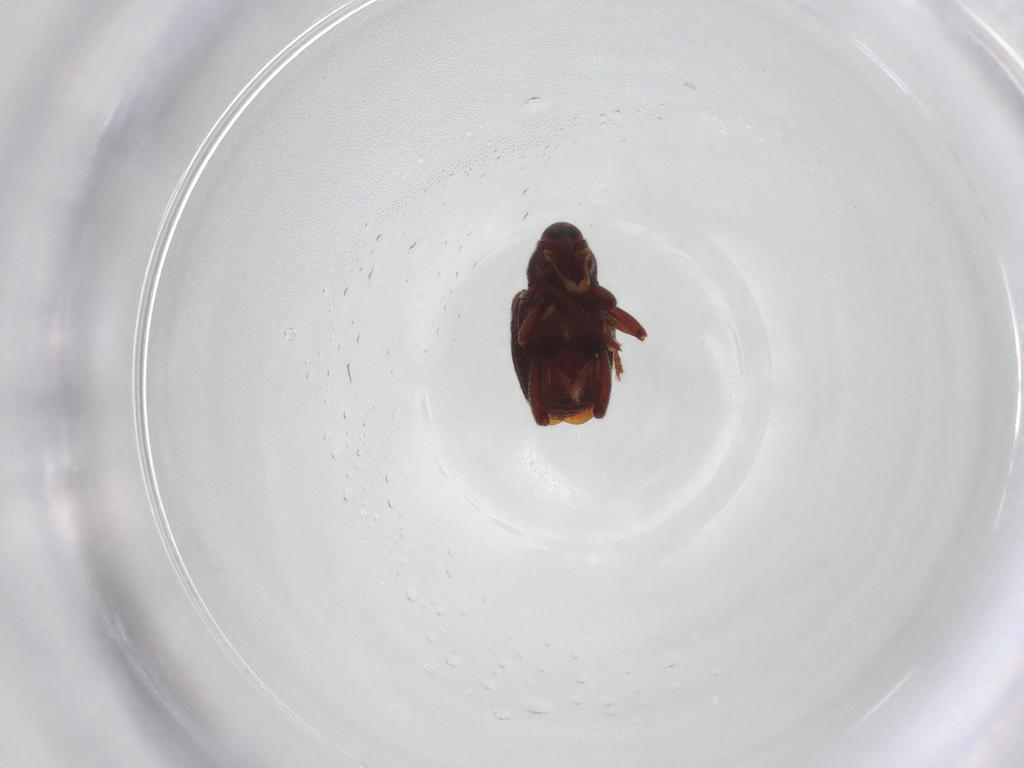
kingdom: Animalia
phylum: Arthropoda
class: Insecta
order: Coleoptera
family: Curculionidae
